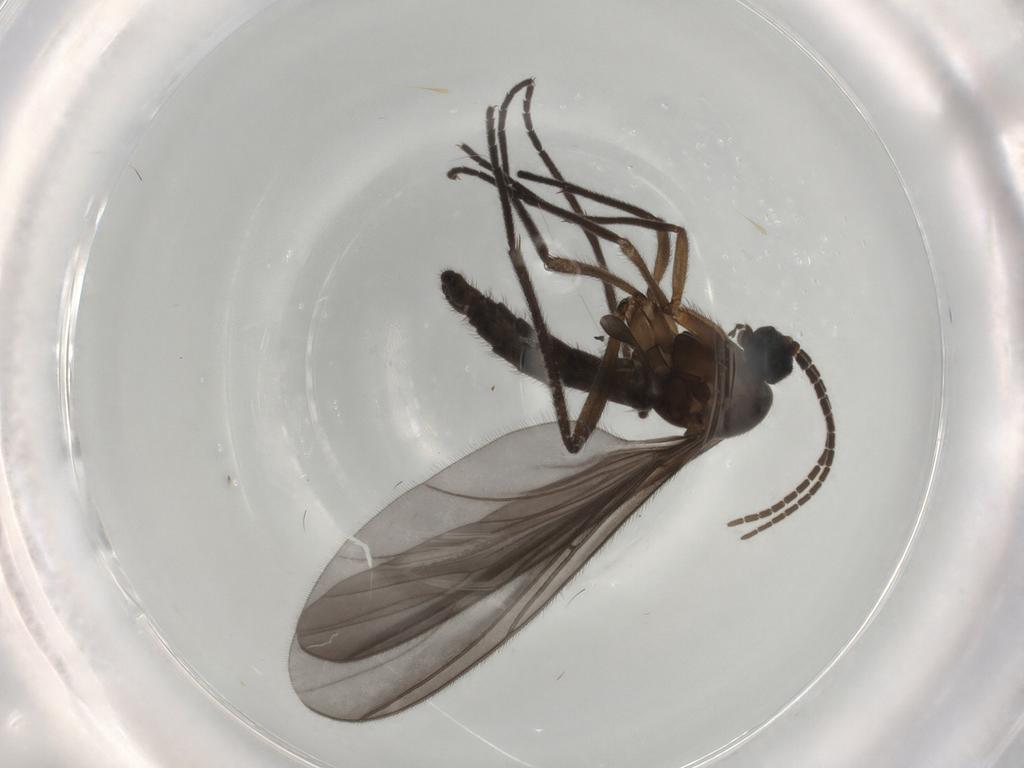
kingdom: Animalia
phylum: Arthropoda
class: Insecta
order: Diptera
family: Sciaridae
